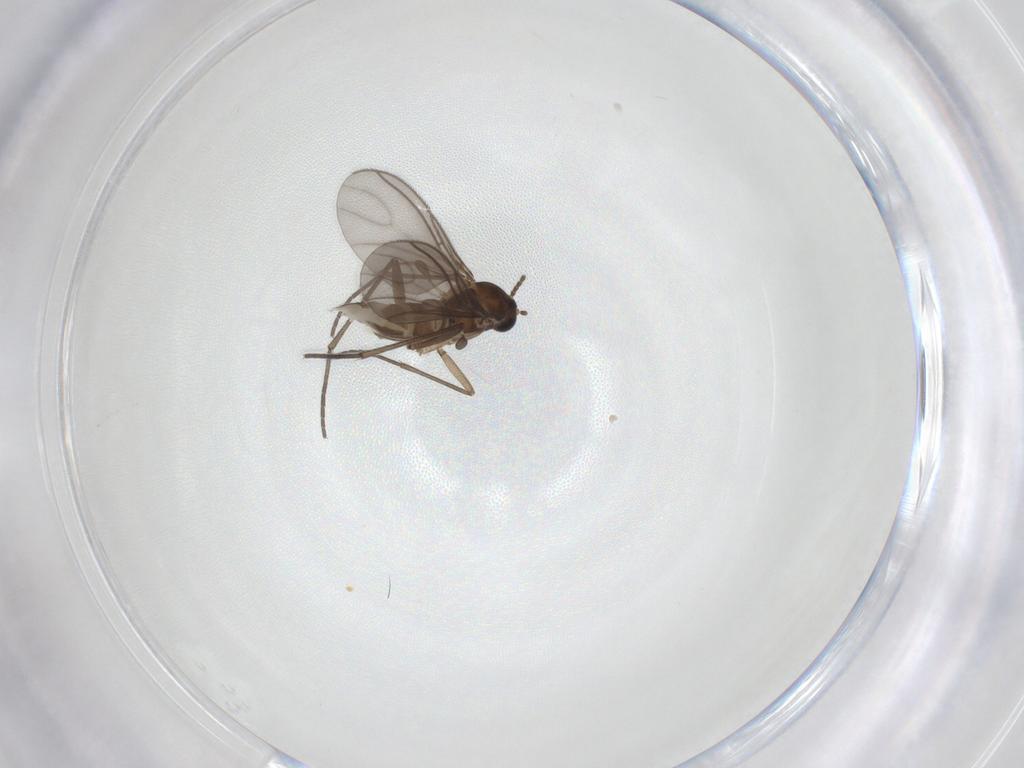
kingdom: Animalia
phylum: Arthropoda
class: Insecta
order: Diptera
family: Sciaridae
